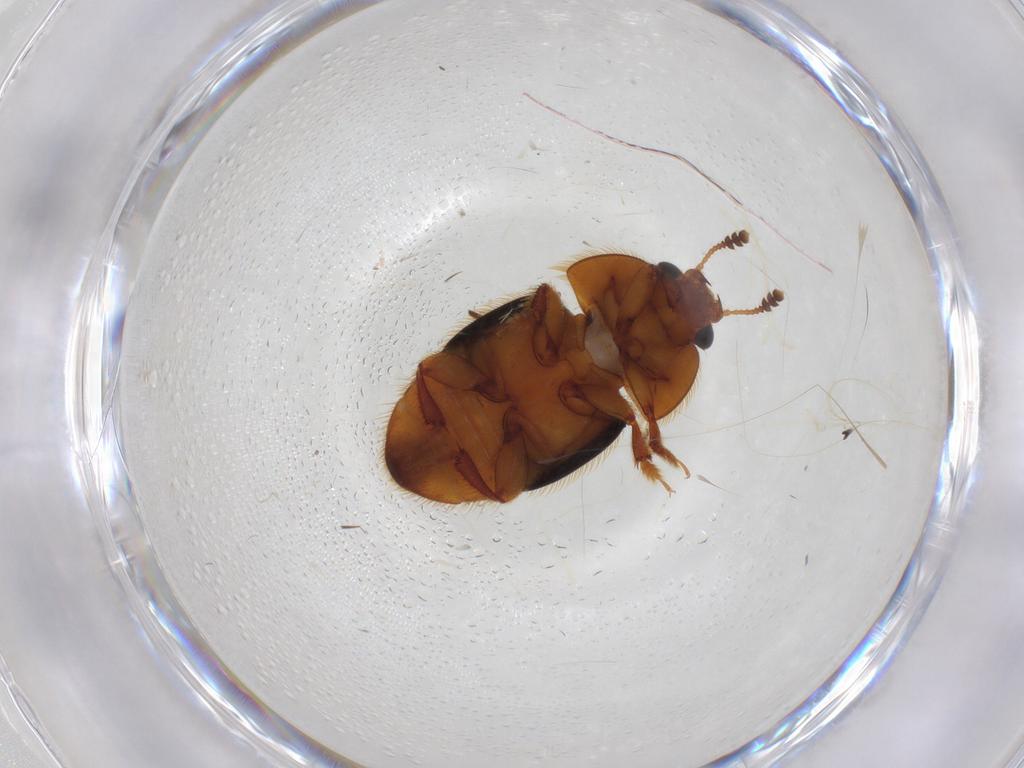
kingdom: Animalia
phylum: Arthropoda
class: Insecta
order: Coleoptera
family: Nitidulidae
